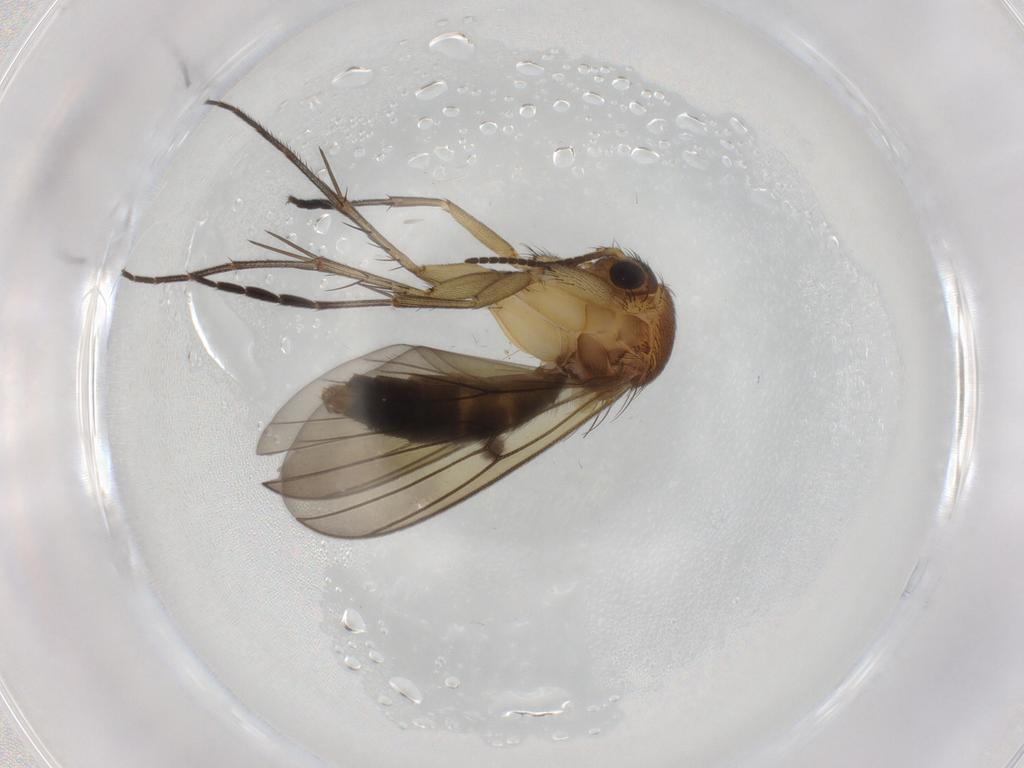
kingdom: Animalia
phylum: Arthropoda
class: Insecta
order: Diptera
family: Mycetophilidae
